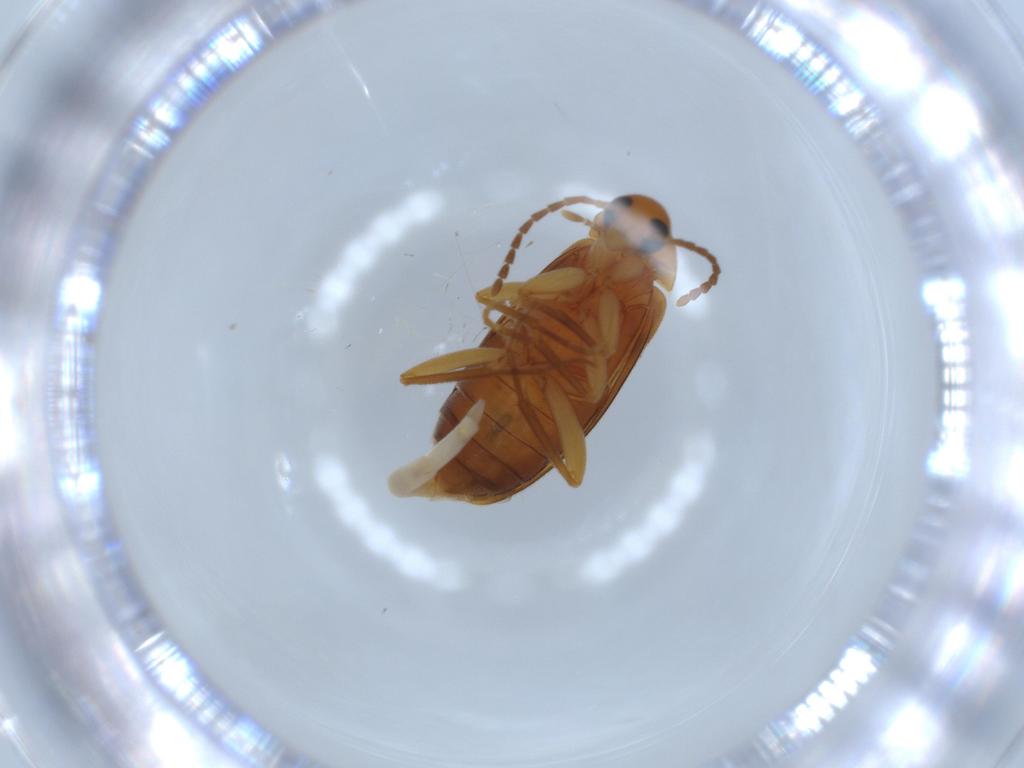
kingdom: Animalia
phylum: Arthropoda
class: Insecta
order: Coleoptera
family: Scraptiidae
